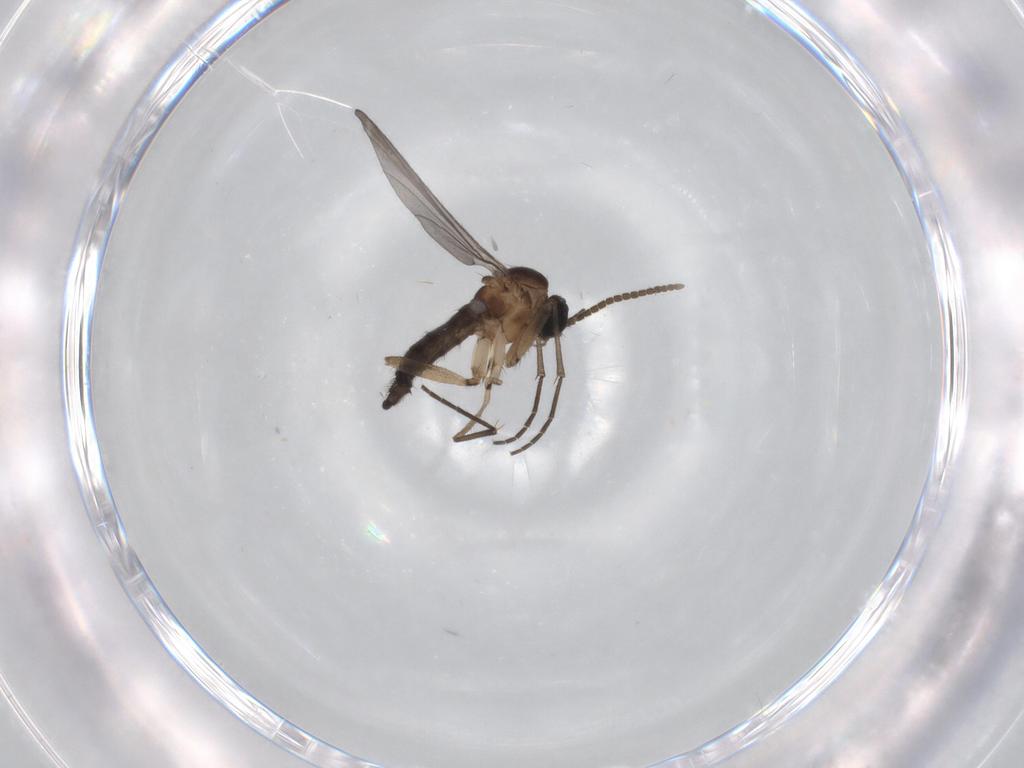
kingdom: Animalia
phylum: Arthropoda
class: Insecta
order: Diptera
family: Sciaridae
